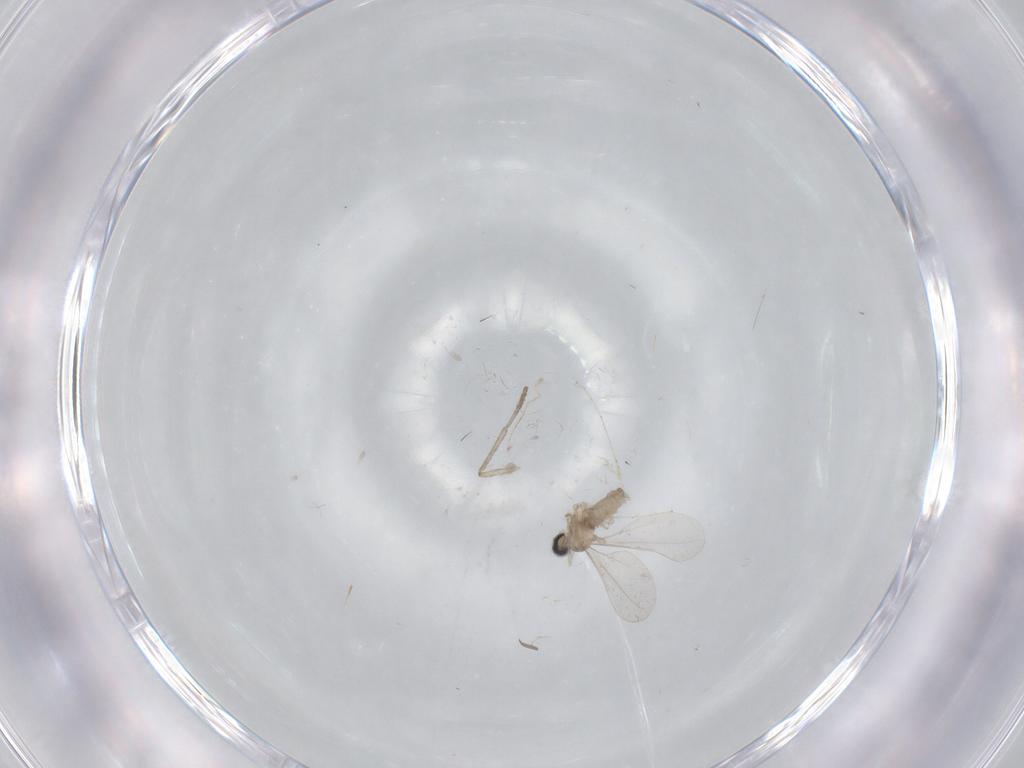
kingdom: Animalia
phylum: Arthropoda
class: Insecta
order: Diptera
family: Cecidomyiidae
